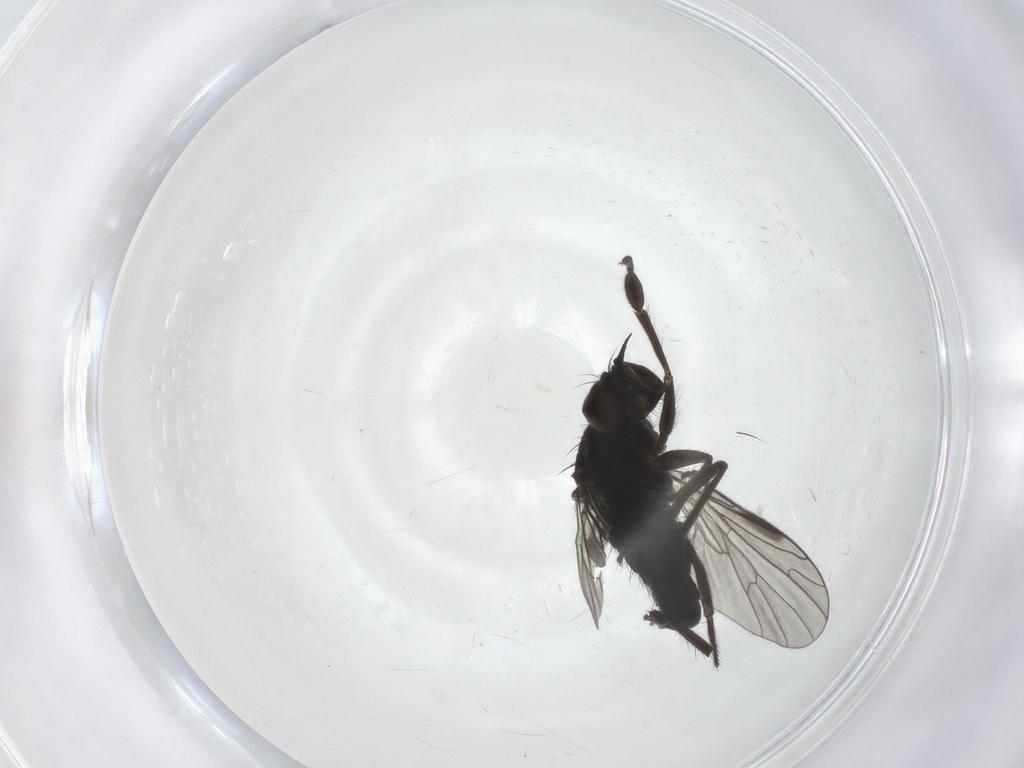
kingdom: Animalia
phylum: Arthropoda
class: Insecta
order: Diptera
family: Empididae
